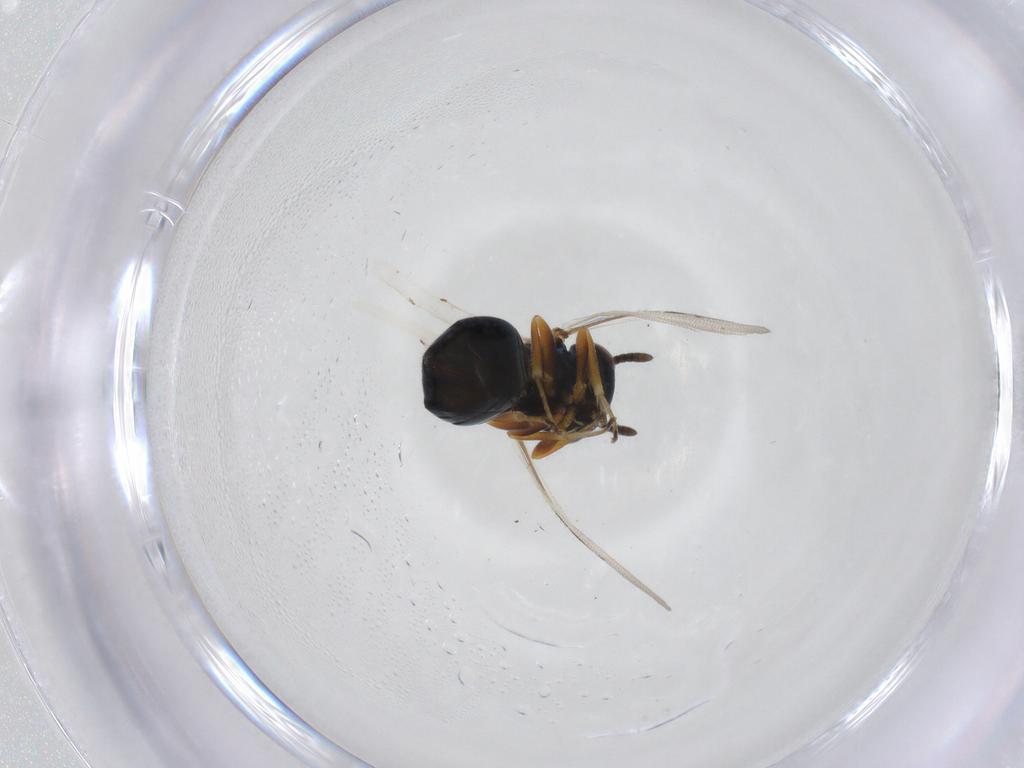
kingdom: Animalia
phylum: Arthropoda
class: Insecta
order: Hymenoptera
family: Pteromalidae
